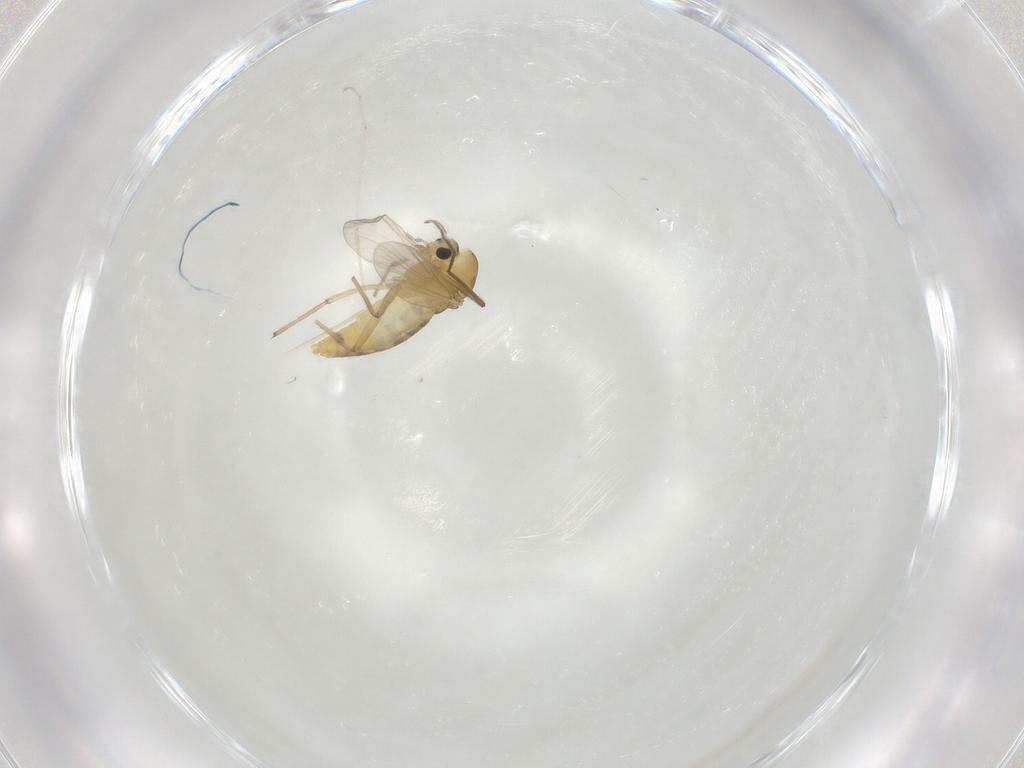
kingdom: Animalia
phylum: Arthropoda
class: Insecta
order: Diptera
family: Chironomidae
